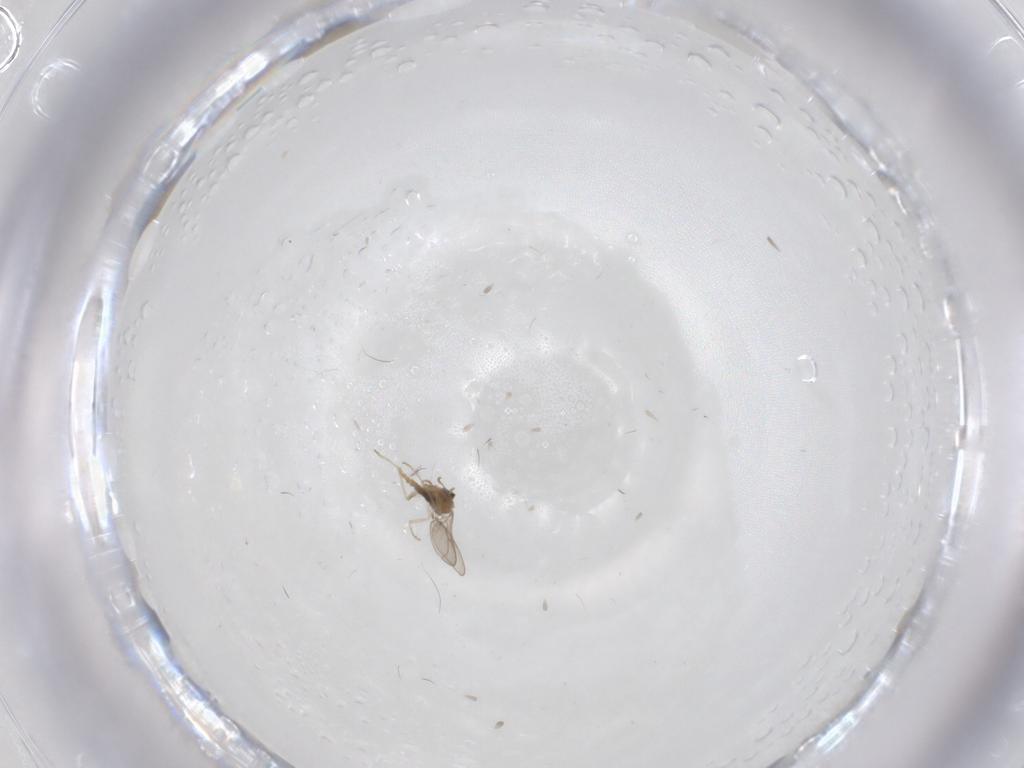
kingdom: Animalia
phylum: Arthropoda
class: Insecta
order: Diptera
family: Cecidomyiidae
